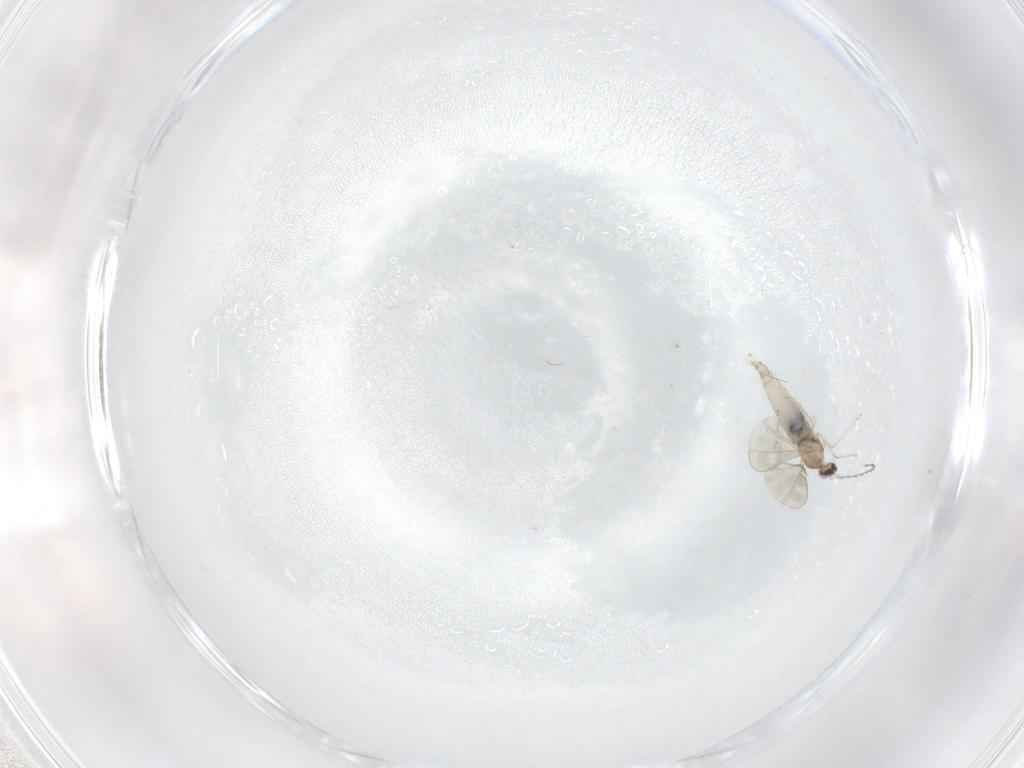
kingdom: Animalia
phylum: Arthropoda
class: Insecta
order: Diptera
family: Cecidomyiidae
